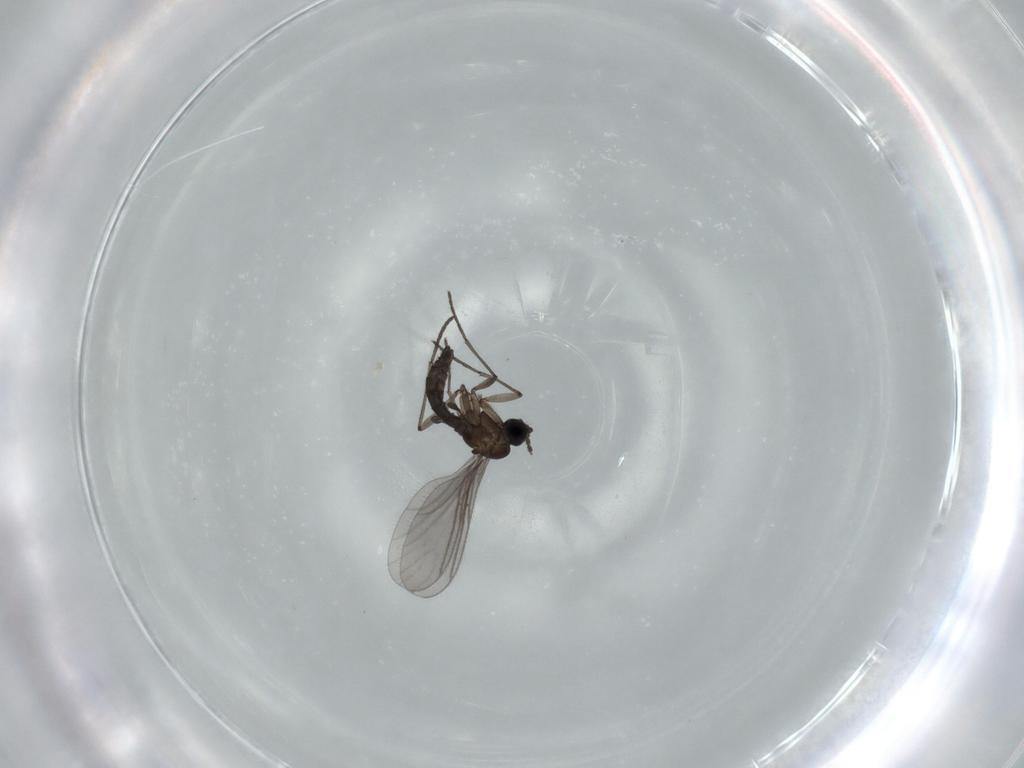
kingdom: Animalia
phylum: Arthropoda
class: Insecta
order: Diptera
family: Sciaridae
